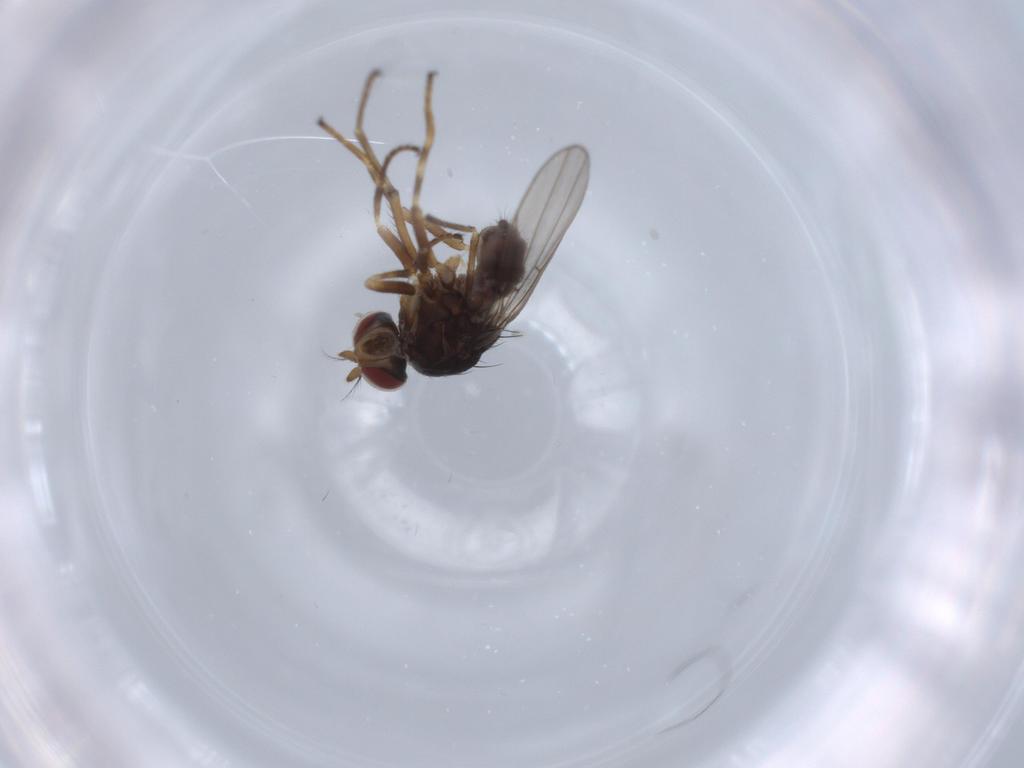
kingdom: Animalia
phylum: Arthropoda
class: Insecta
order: Diptera
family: Ephydridae
